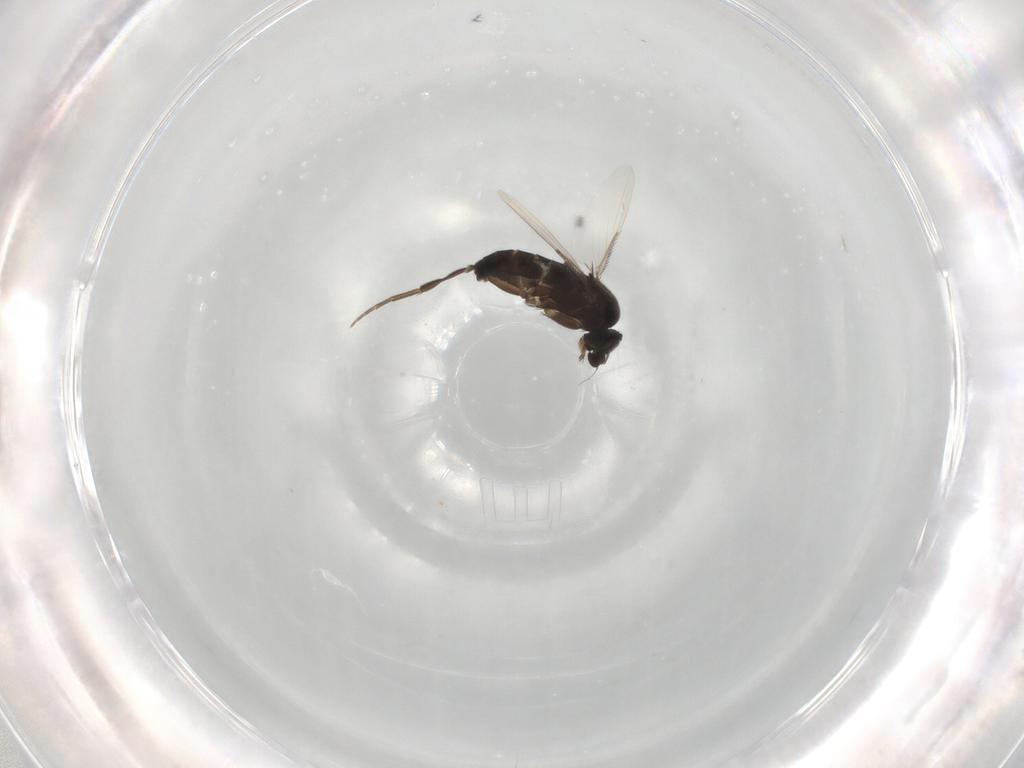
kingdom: Animalia
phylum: Arthropoda
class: Insecta
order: Diptera
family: Phoridae
